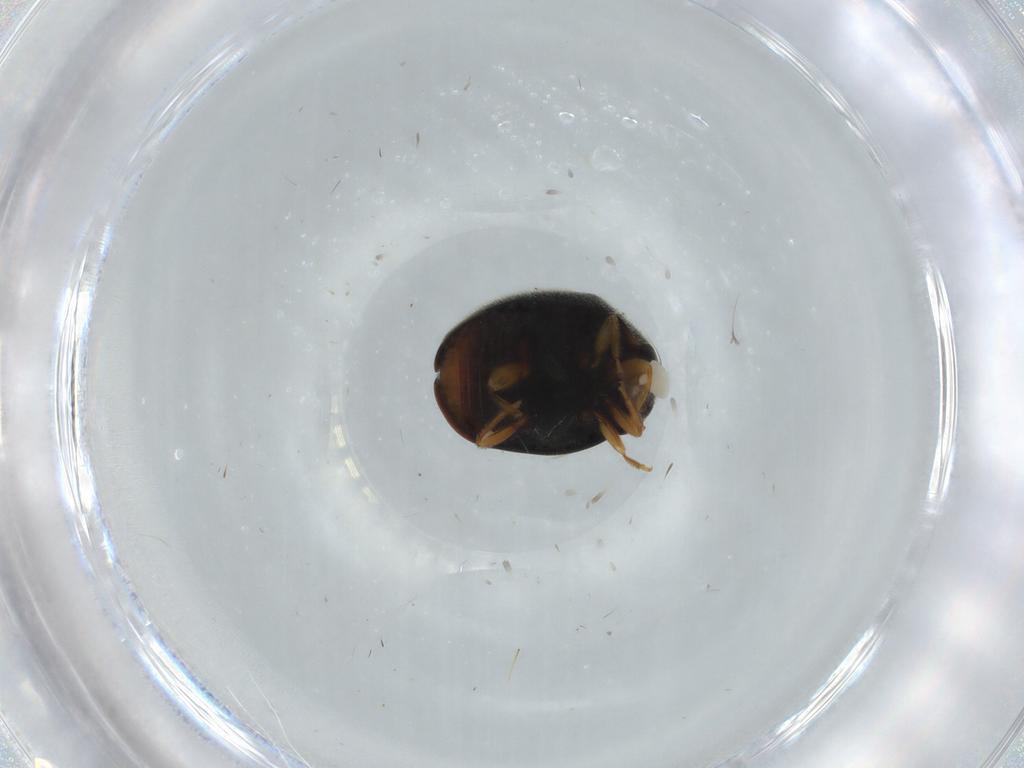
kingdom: Animalia
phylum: Arthropoda
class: Insecta
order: Coleoptera
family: Coccinellidae
